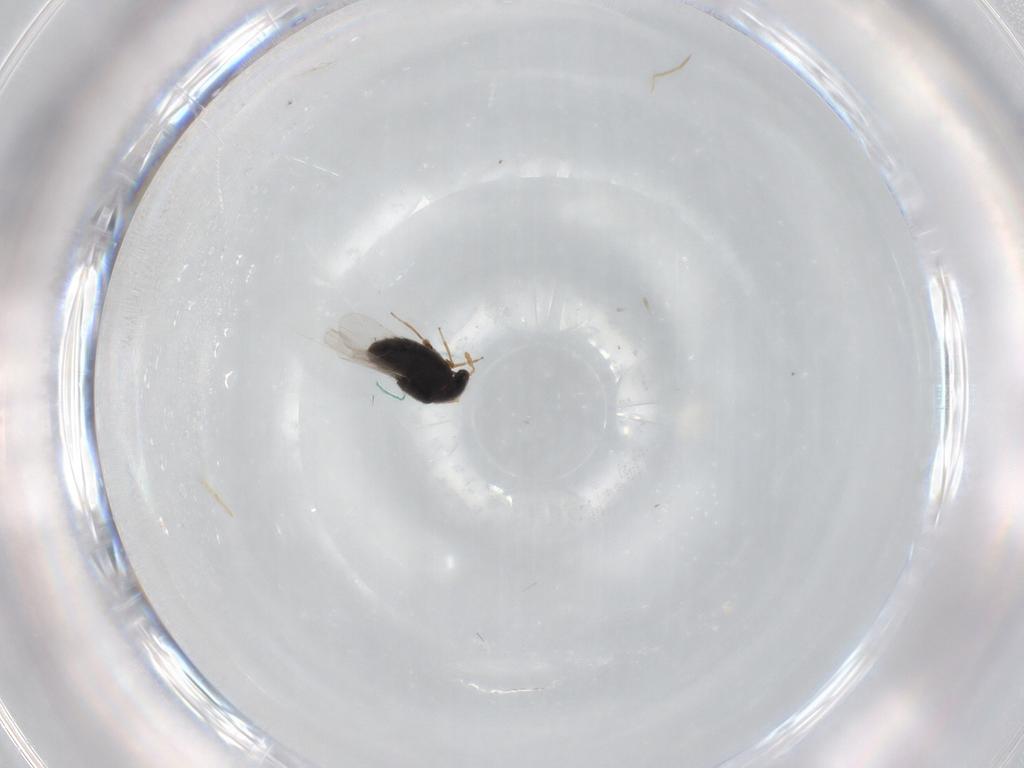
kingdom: Animalia
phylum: Arthropoda
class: Insecta
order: Coleoptera
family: Staphylinidae
